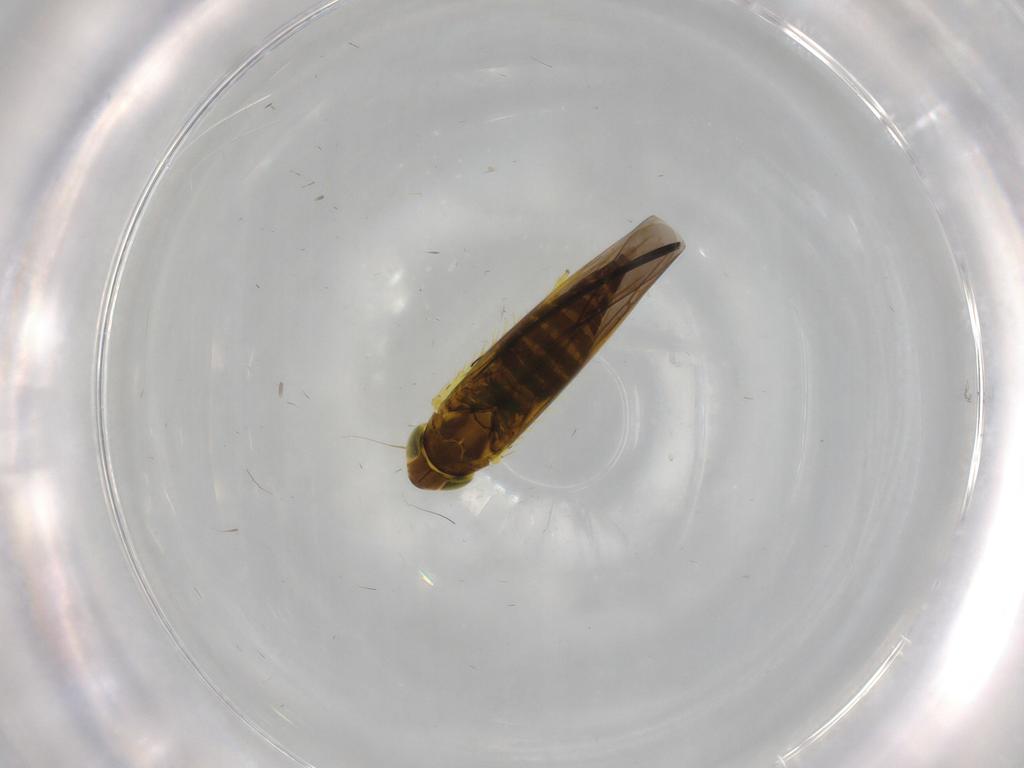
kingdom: Animalia
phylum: Arthropoda
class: Insecta
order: Hemiptera
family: Cicadellidae
